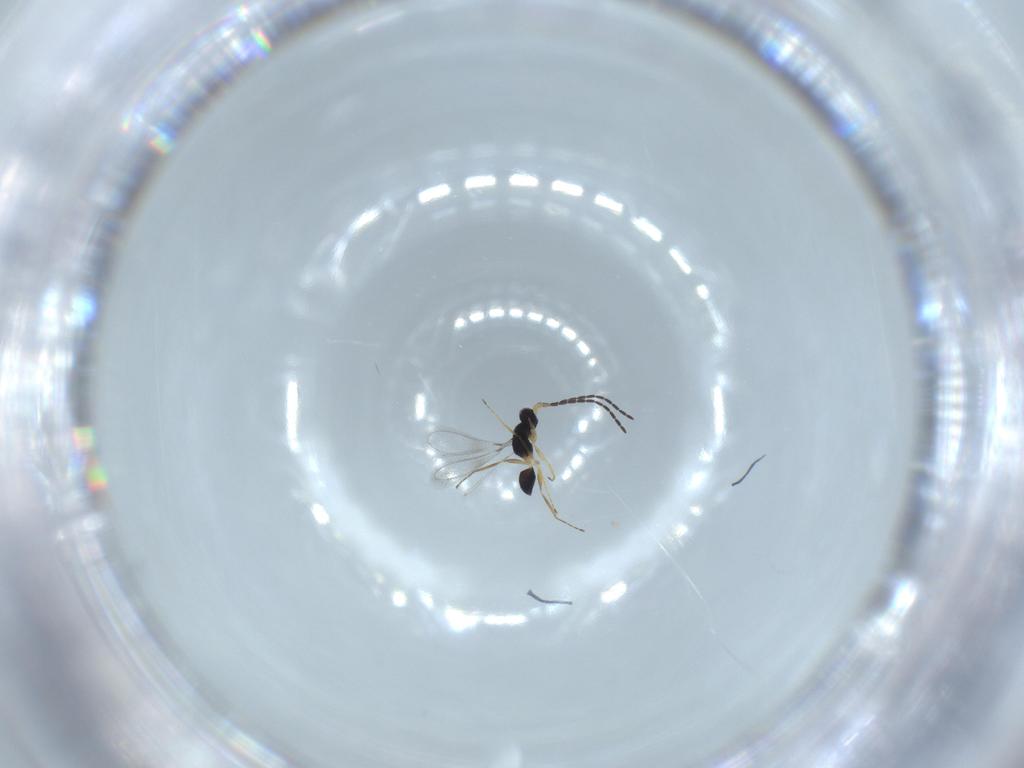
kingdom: Animalia
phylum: Arthropoda
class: Insecta
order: Hymenoptera
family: Mymaridae
